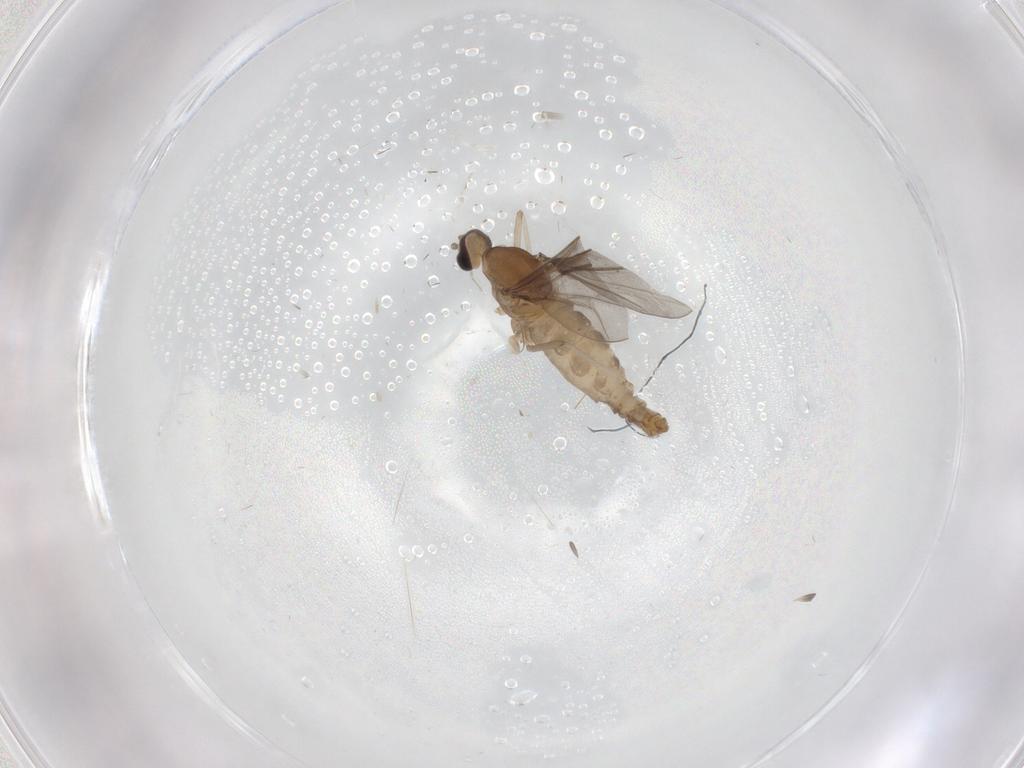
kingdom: Animalia
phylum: Arthropoda
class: Insecta
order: Diptera
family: Cecidomyiidae
